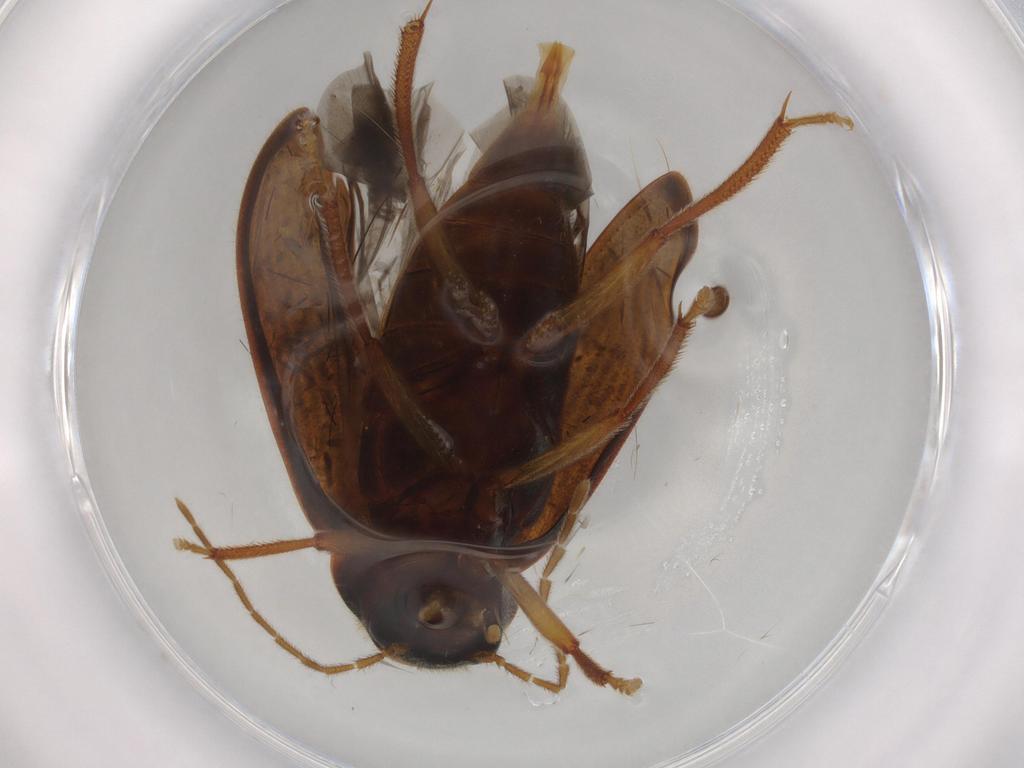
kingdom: Animalia
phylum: Arthropoda
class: Insecta
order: Coleoptera
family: Ptilodactylidae
